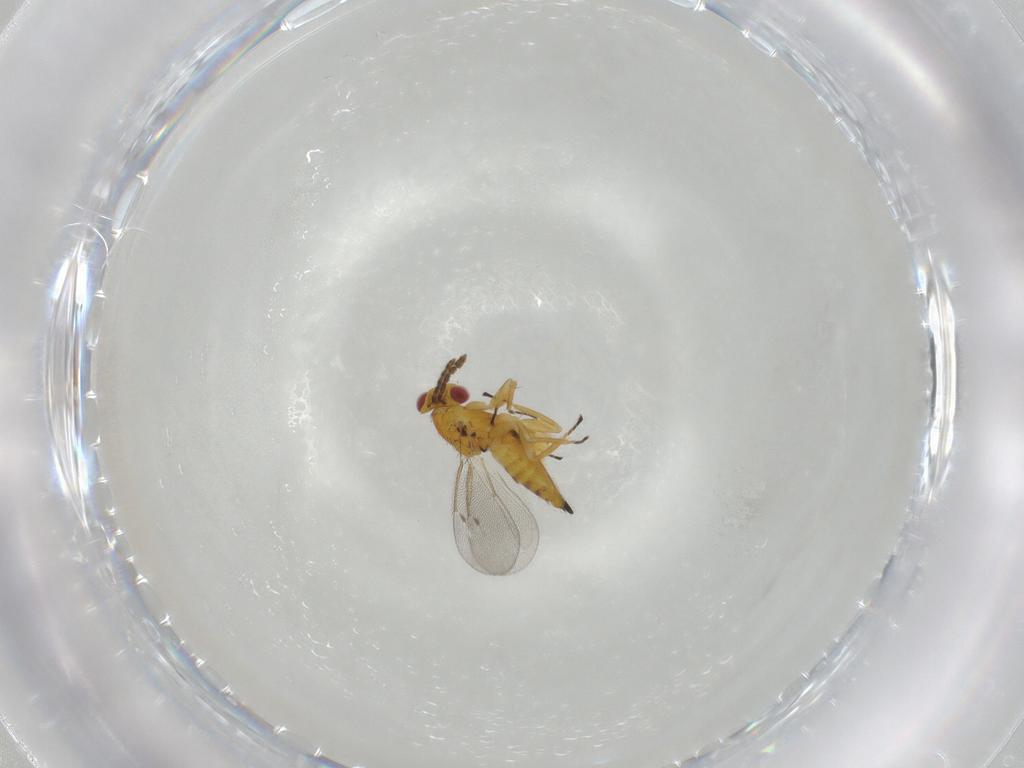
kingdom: Animalia
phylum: Arthropoda
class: Insecta
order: Hymenoptera
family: Eulophidae
